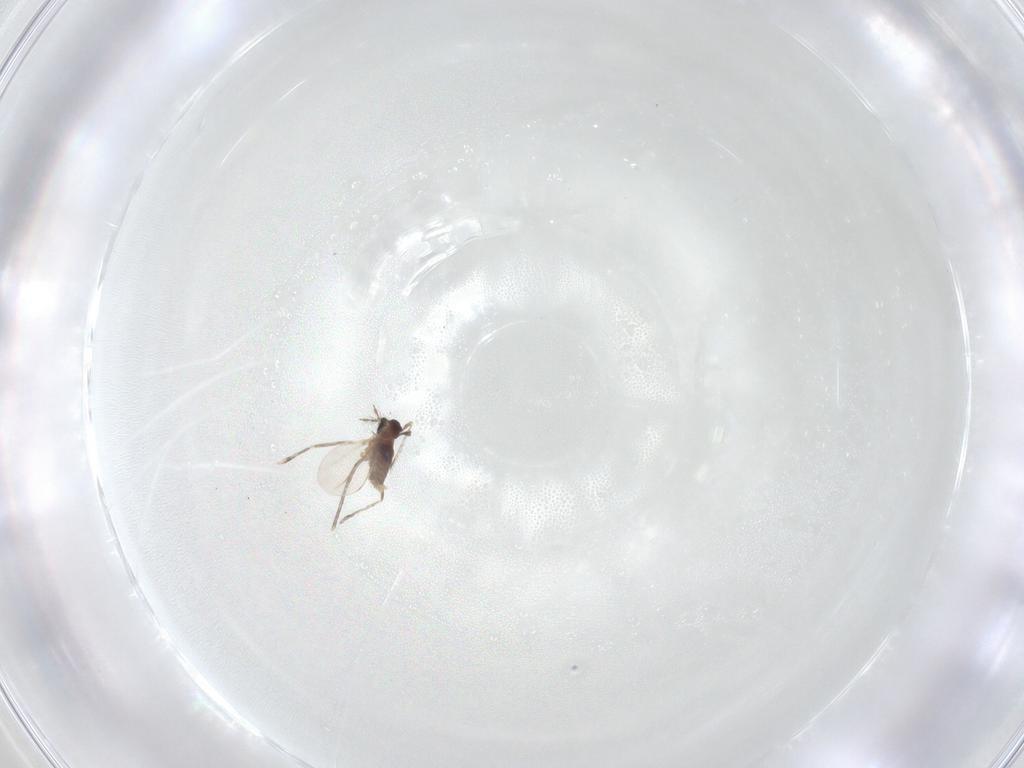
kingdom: Animalia
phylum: Arthropoda
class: Insecta
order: Diptera
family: Cecidomyiidae
